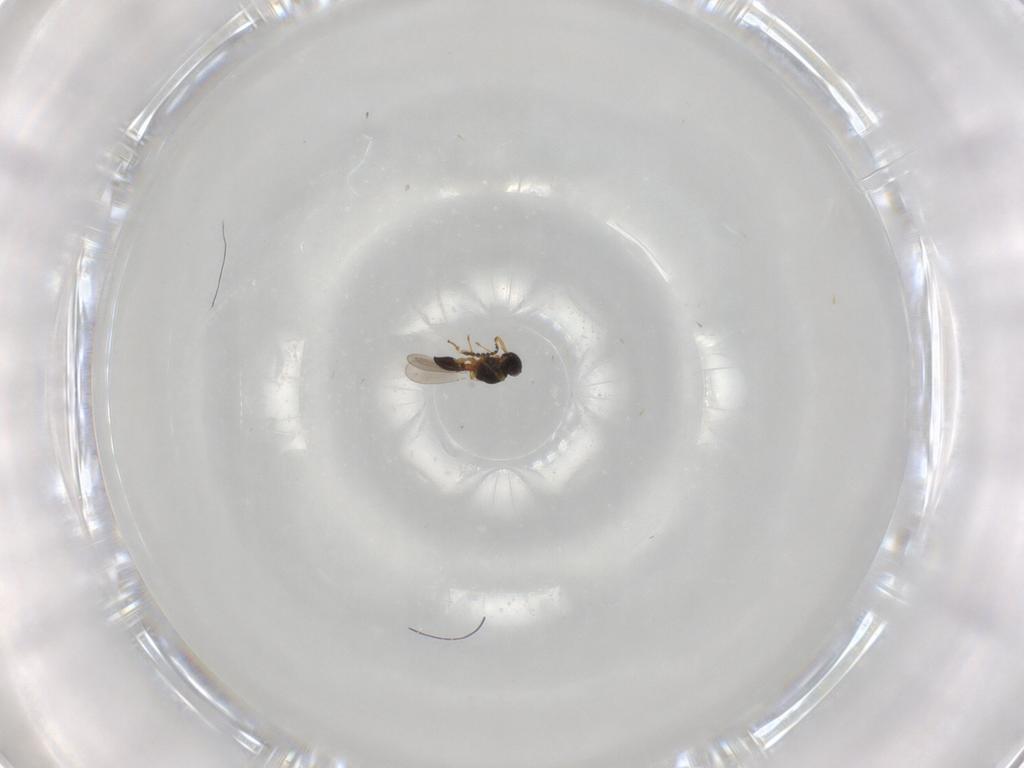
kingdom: Animalia
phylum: Arthropoda
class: Insecta
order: Hymenoptera
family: Platygastridae
